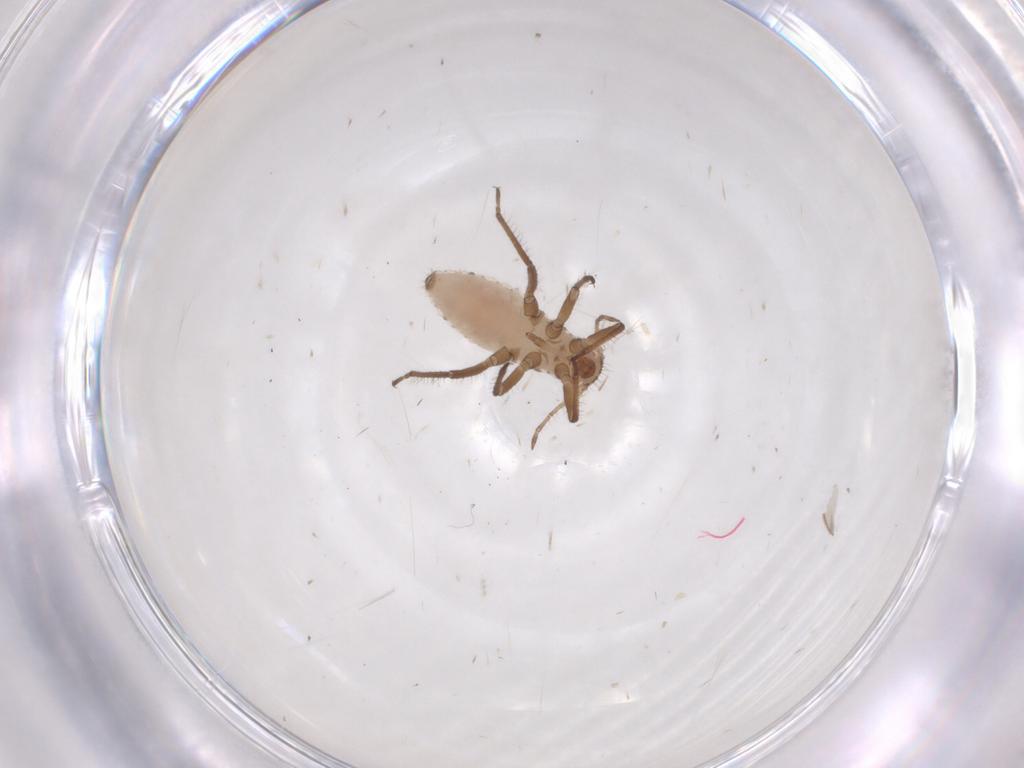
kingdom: Animalia
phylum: Arthropoda
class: Insecta
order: Hemiptera
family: Aphididae
